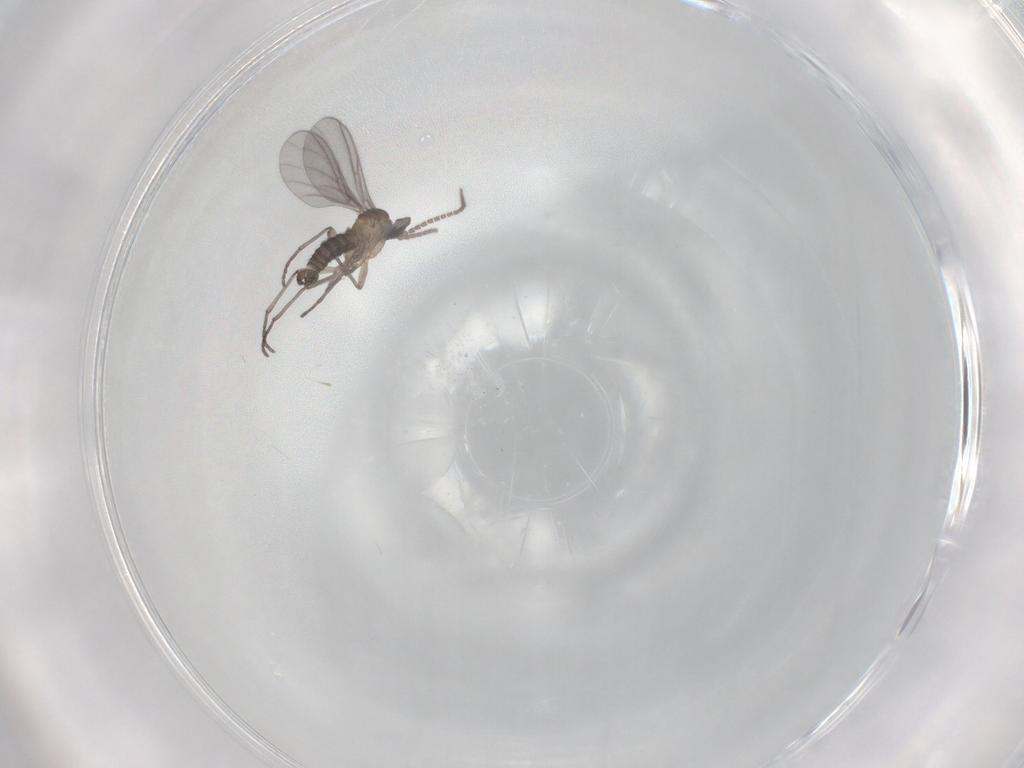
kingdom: Animalia
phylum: Arthropoda
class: Insecta
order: Diptera
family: Sciaridae
